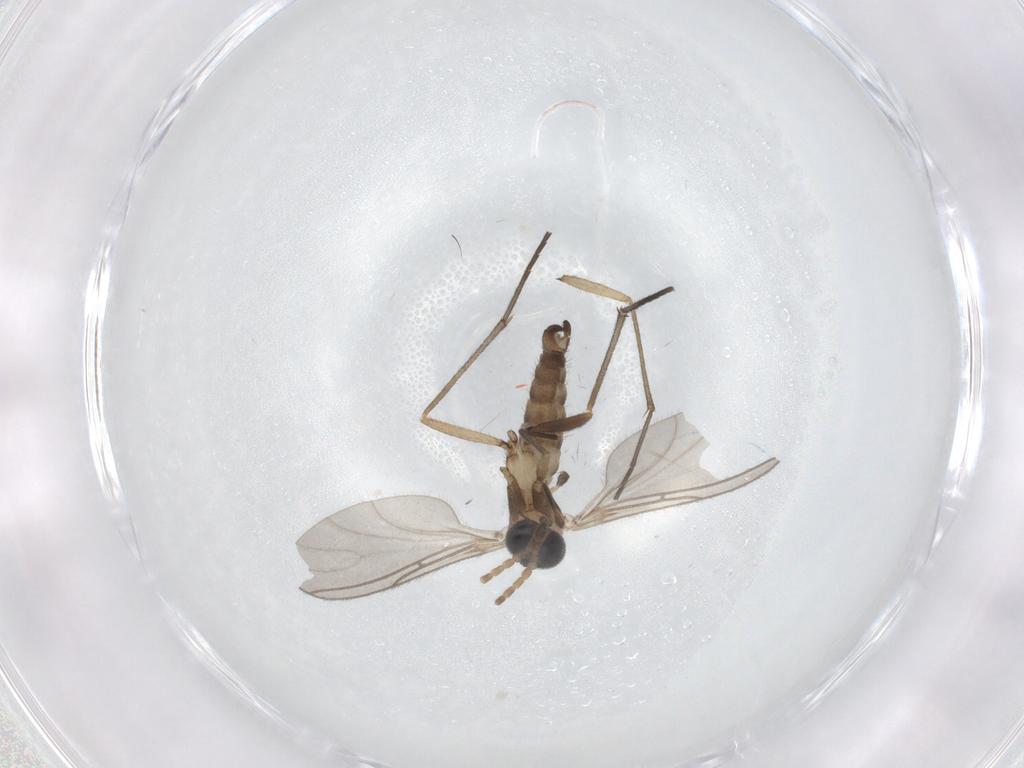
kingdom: Animalia
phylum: Arthropoda
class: Insecta
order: Diptera
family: Sciaridae
